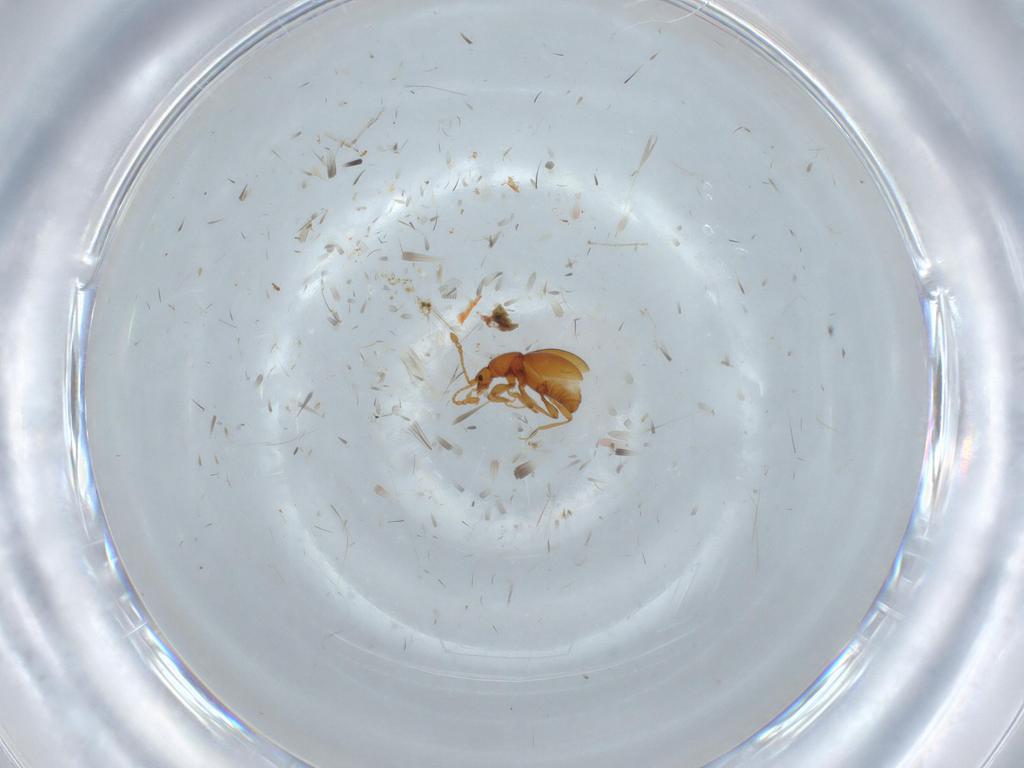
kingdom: Animalia
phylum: Arthropoda
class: Insecta
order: Coleoptera
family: Staphylinidae
